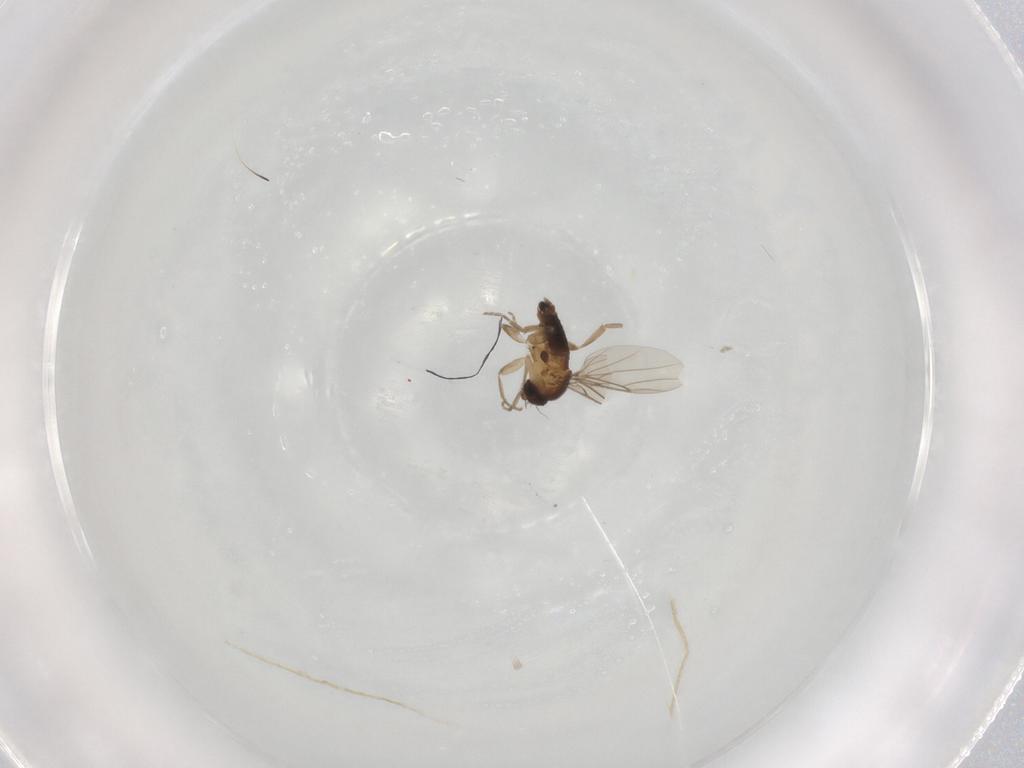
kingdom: Animalia
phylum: Arthropoda
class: Insecta
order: Diptera
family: Phoridae
